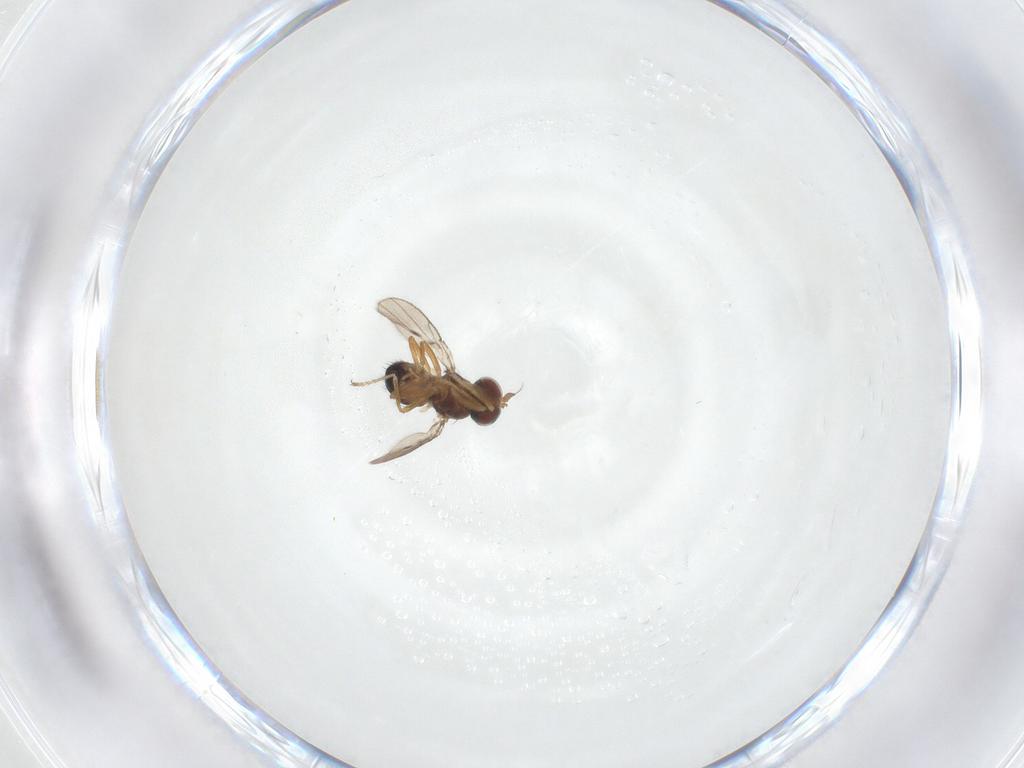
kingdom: Animalia
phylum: Arthropoda
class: Insecta
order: Diptera
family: Ephydridae
